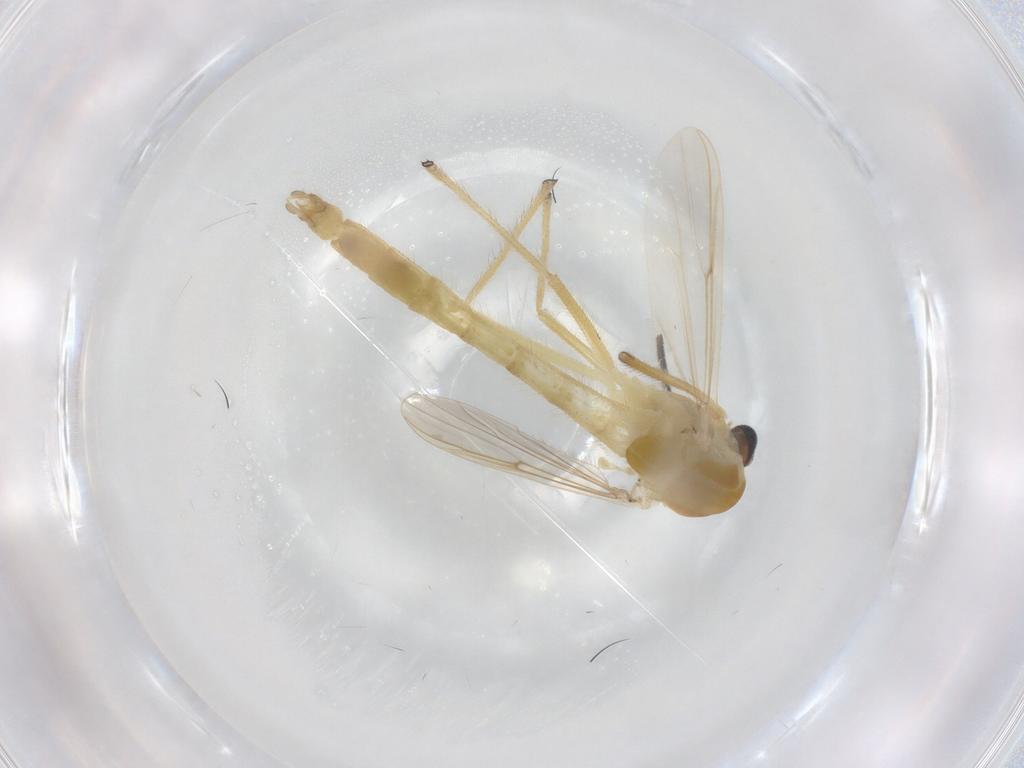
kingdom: Animalia
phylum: Arthropoda
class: Insecta
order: Diptera
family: Chironomidae
